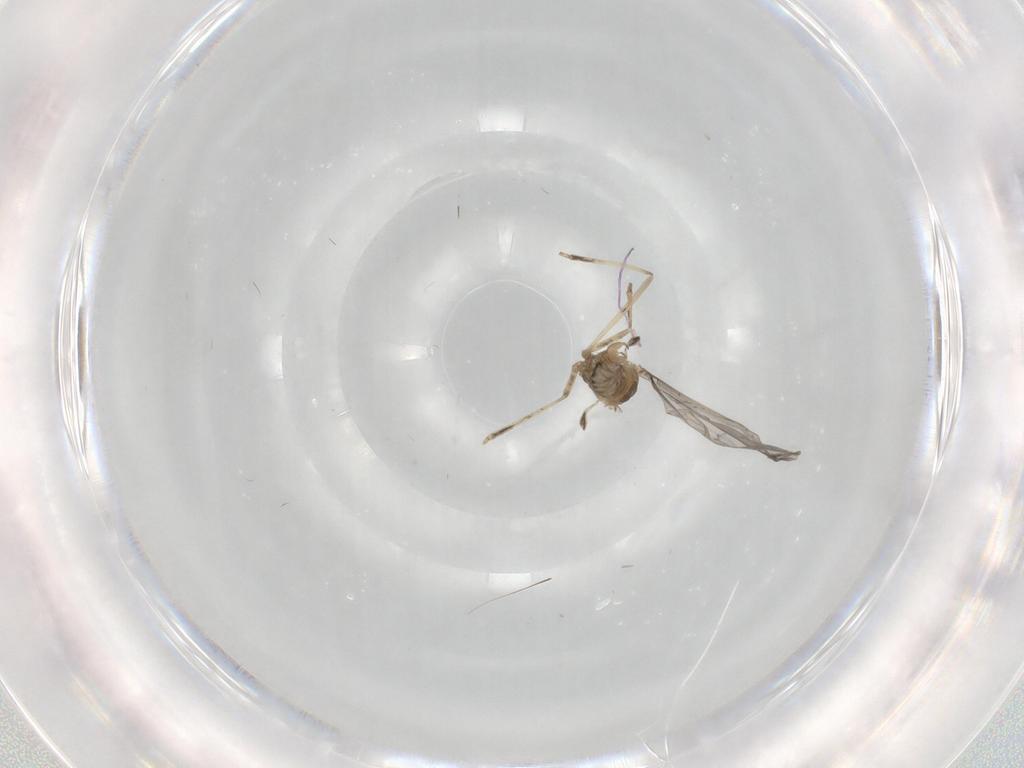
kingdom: Animalia
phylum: Arthropoda
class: Insecta
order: Diptera
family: Cecidomyiidae
